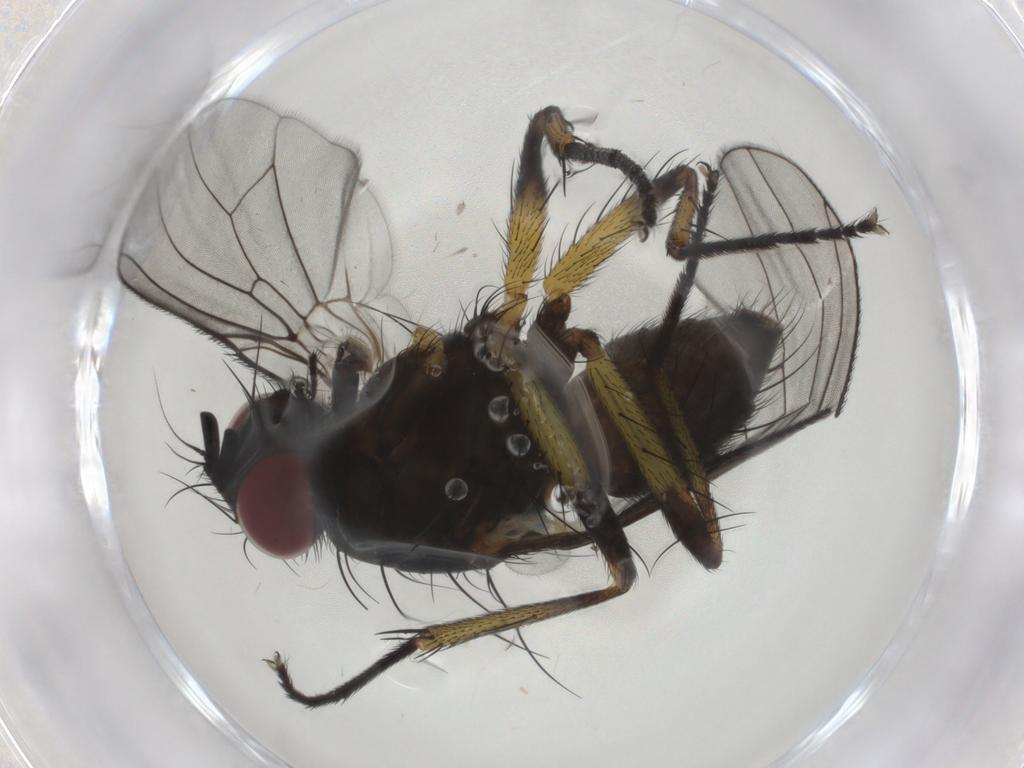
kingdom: Animalia
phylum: Arthropoda
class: Insecta
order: Diptera
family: Muscidae
